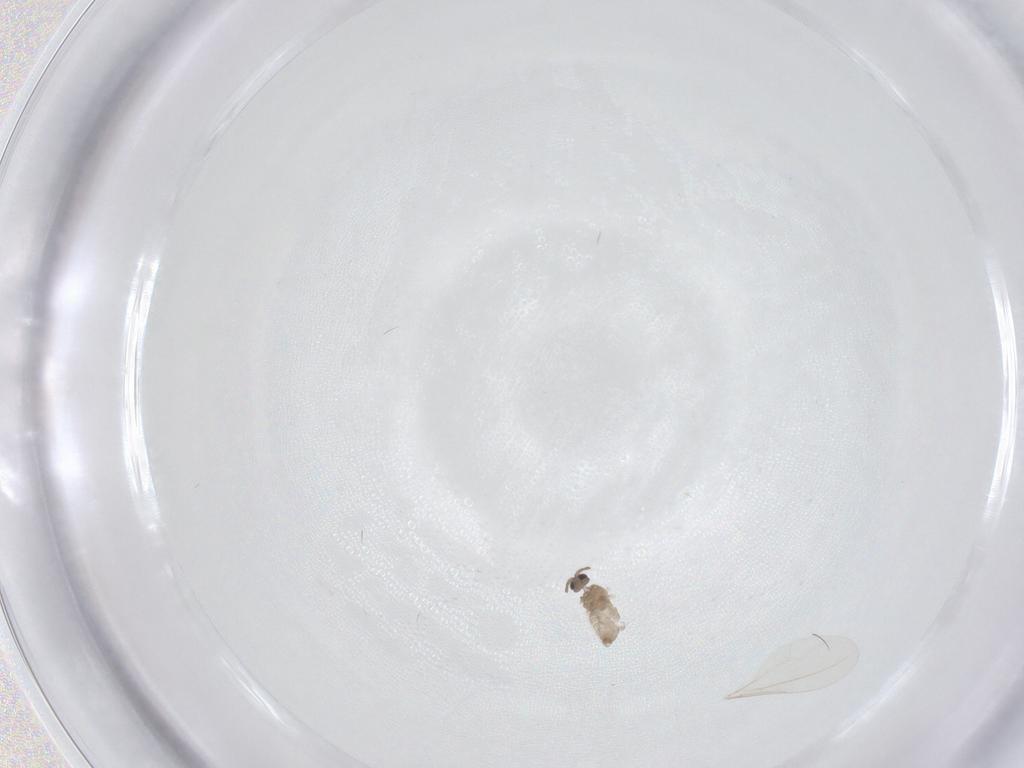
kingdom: Animalia
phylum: Arthropoda
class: Insecta
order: Diptera
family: Cecidomyiidae
